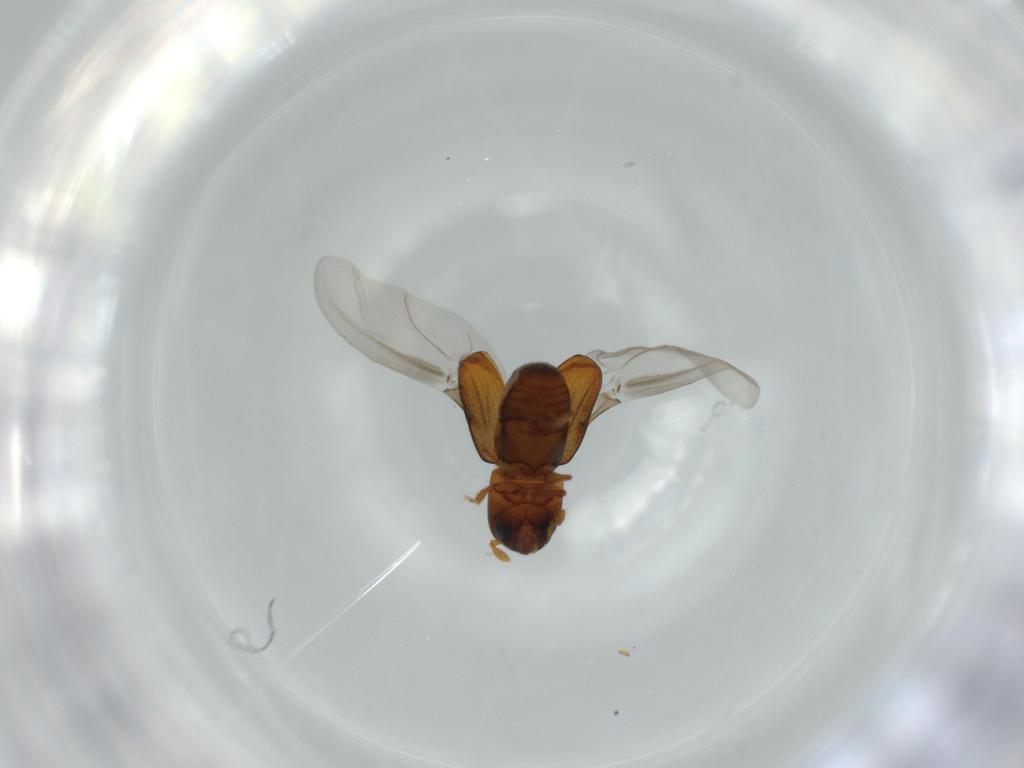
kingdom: Animalia
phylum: Arthropoda
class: Insecta
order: Coleoptera
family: Curculionidae
